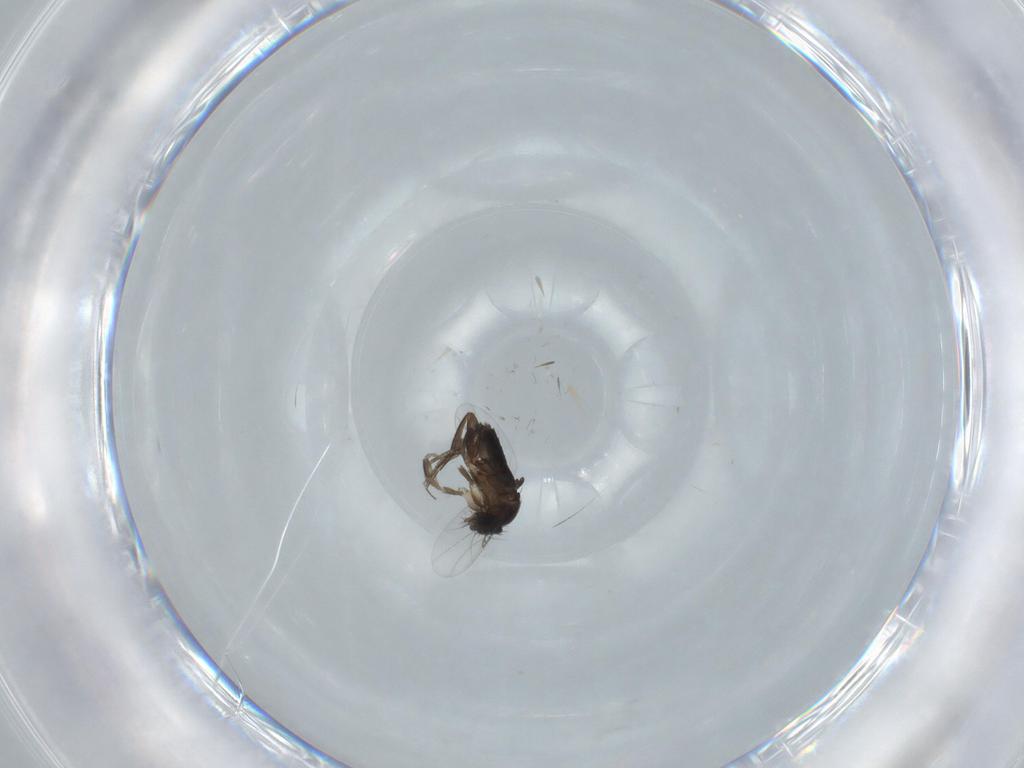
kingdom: Animalia
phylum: Arthropoda
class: Insecta
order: Diptera
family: Phoridae
